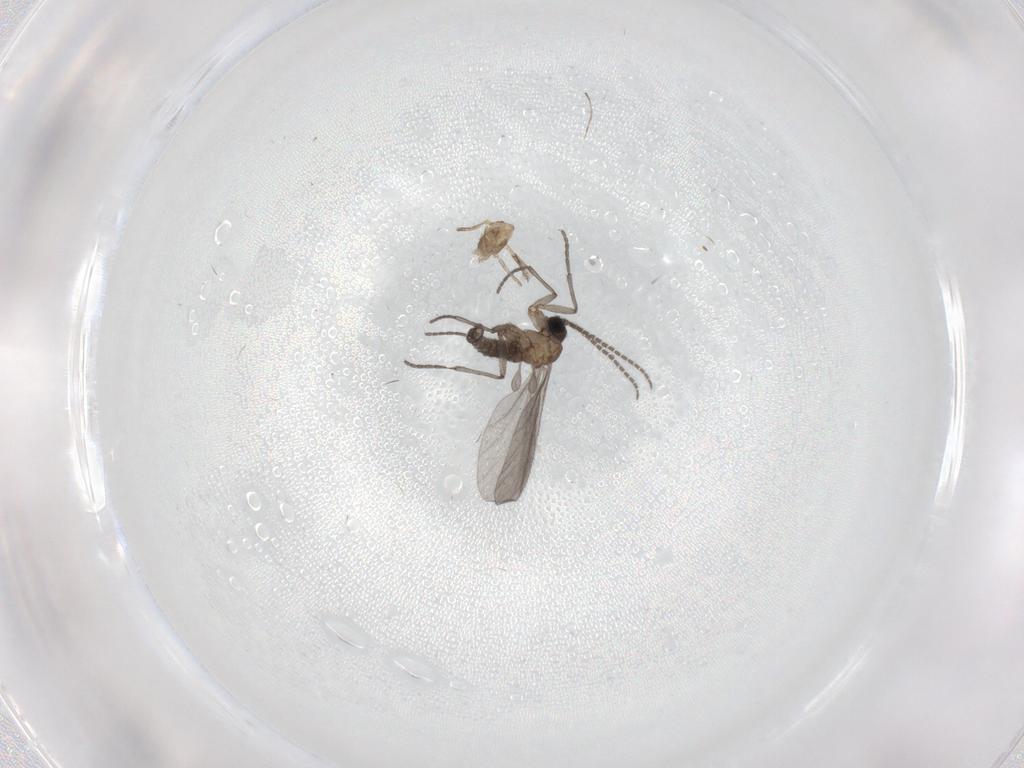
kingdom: Animalia
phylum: Arthropoda
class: Insecta
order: Diptera
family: Sciaridae
